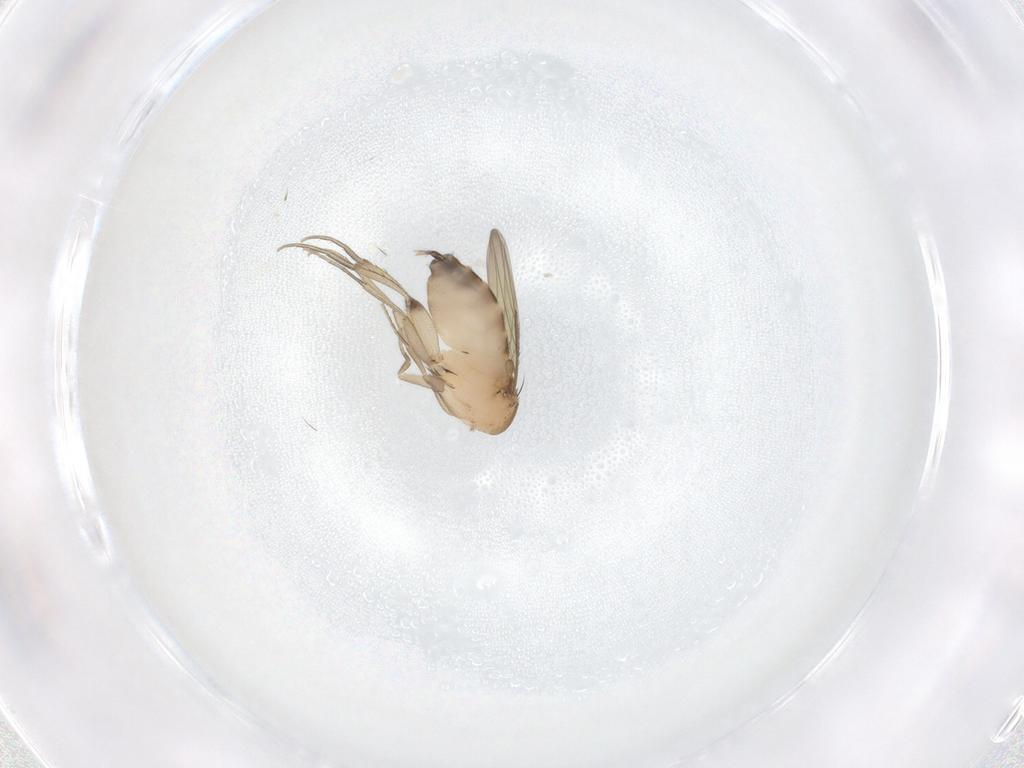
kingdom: Animalia
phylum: Arthropoda
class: Insecta
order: Diptera
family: Phoridae
